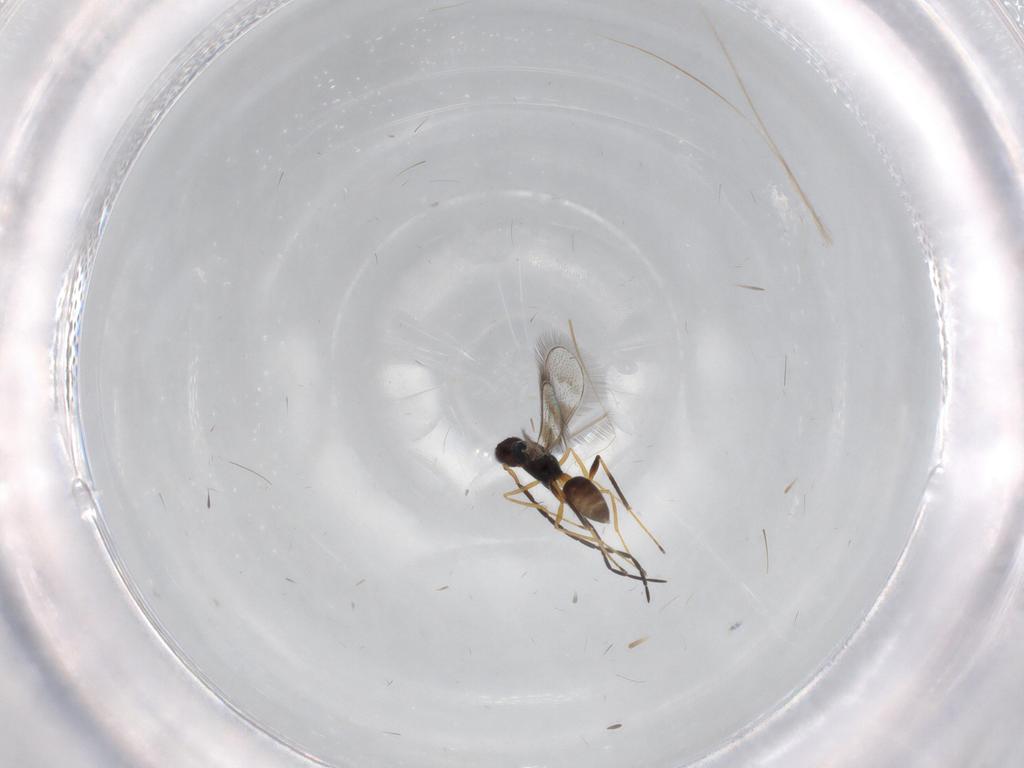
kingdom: Animalia
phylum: Arthropoda
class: Insecta
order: Hymenoptera
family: Mymaridae
